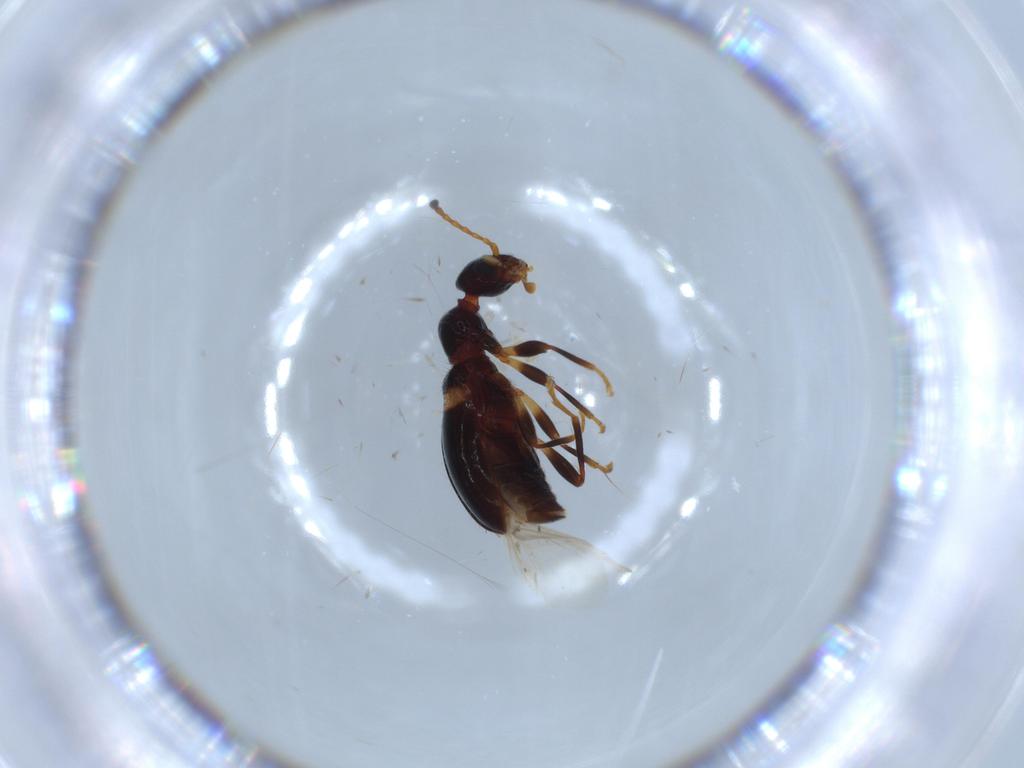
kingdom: Animalia
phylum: Arthropoda
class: Insecta
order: Coleoptera
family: Anthicidae
